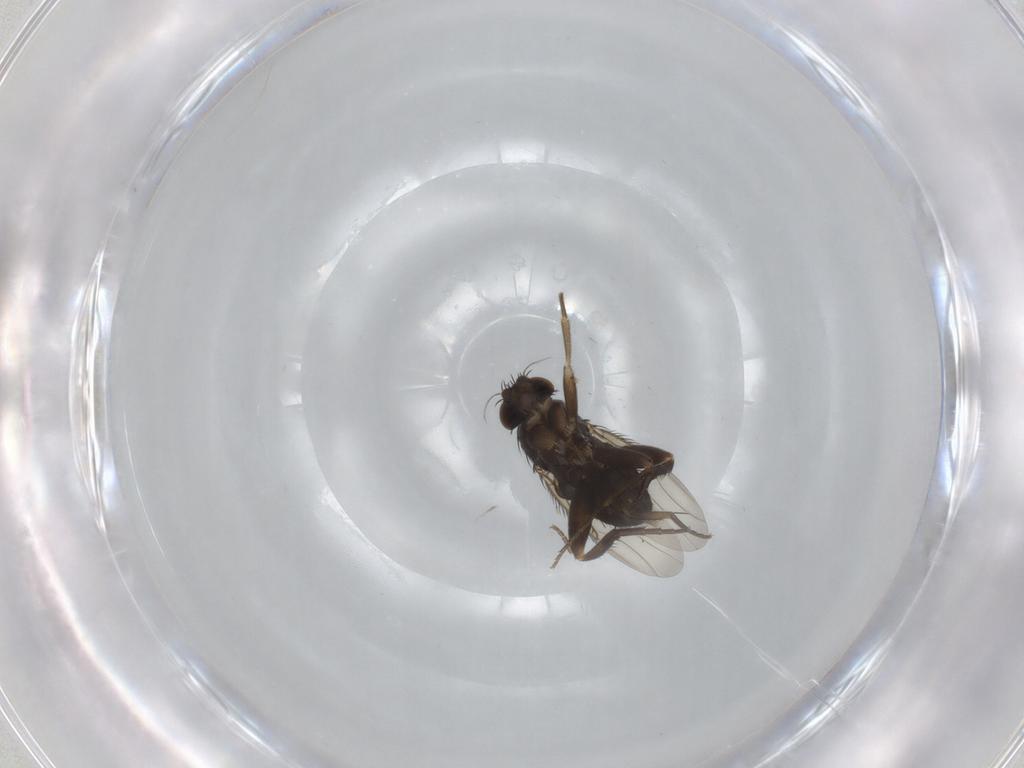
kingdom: Animalia
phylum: Arthropoda
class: Insecta
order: Diptera
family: Phoridae
